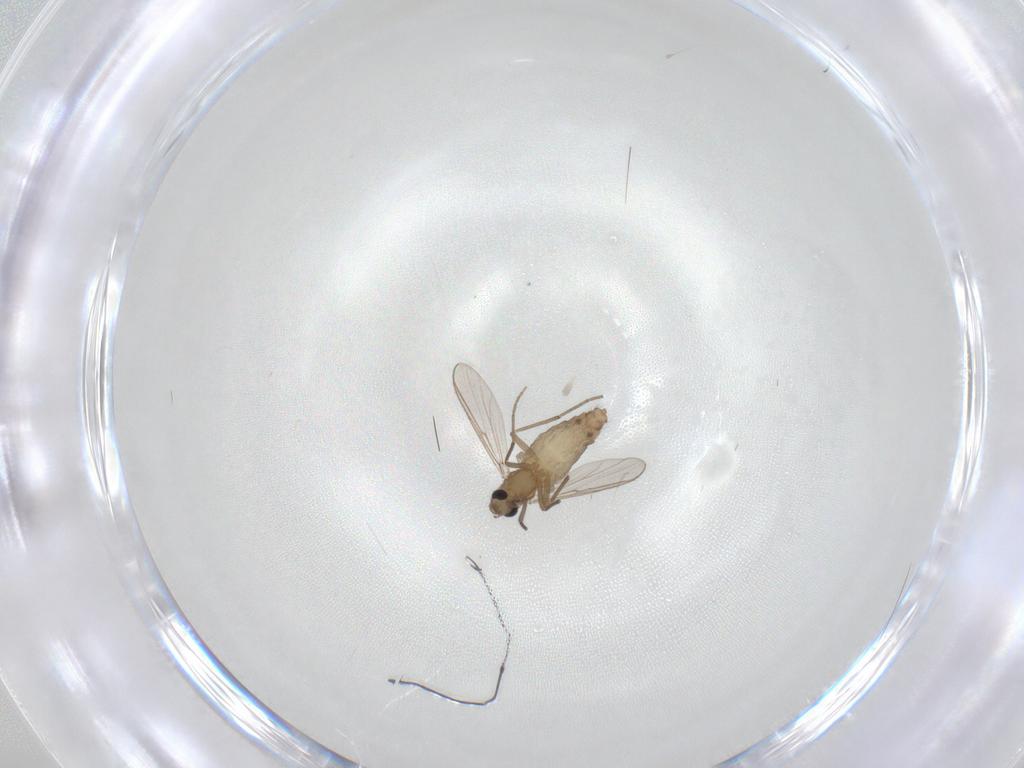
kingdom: Animalia
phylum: Arthropoda
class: Insecta
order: Diptera
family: Chironomidae
